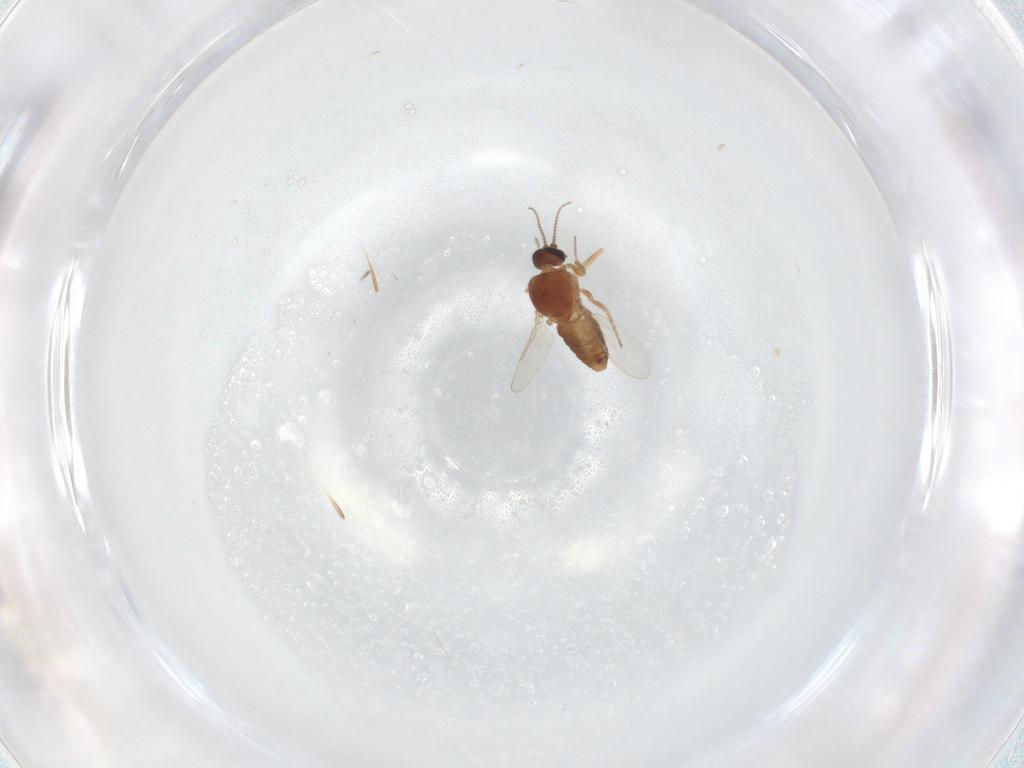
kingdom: Animalia
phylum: Arthropoda
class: Insecta
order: Diptera
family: Ceratopogonidae
